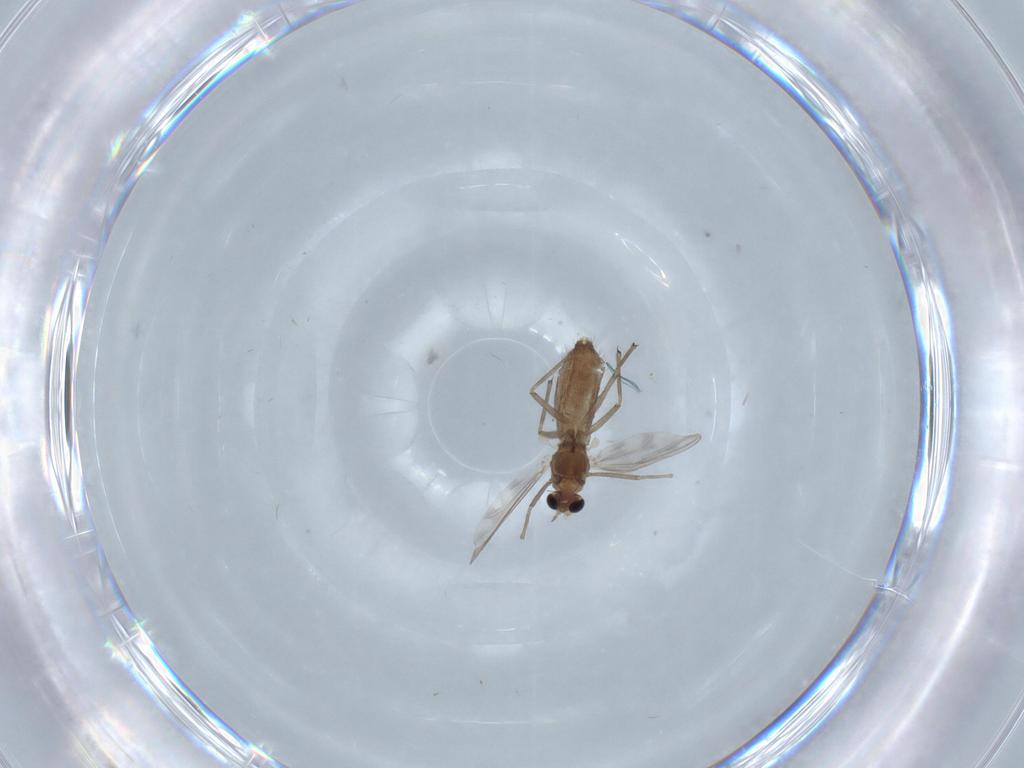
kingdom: Animalia
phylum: Arthropoda
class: Insecta
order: Diptera
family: Chironomidae
